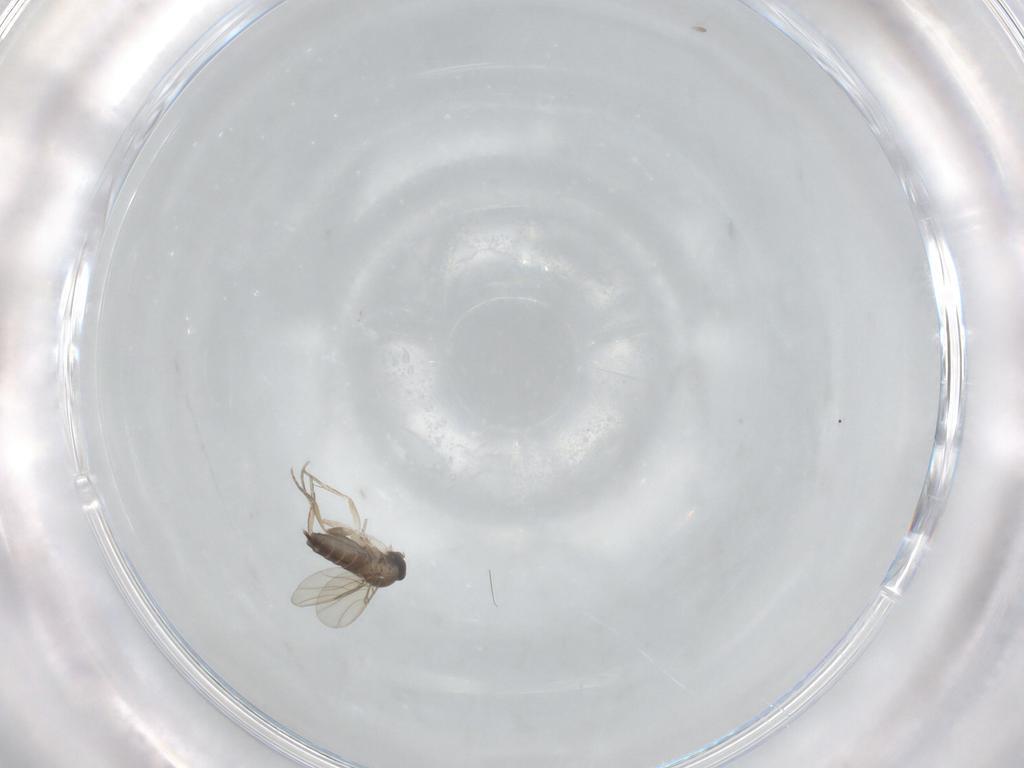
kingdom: Animalia
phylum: Arthropoda
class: Insecta
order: Diptera
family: Phoridae
